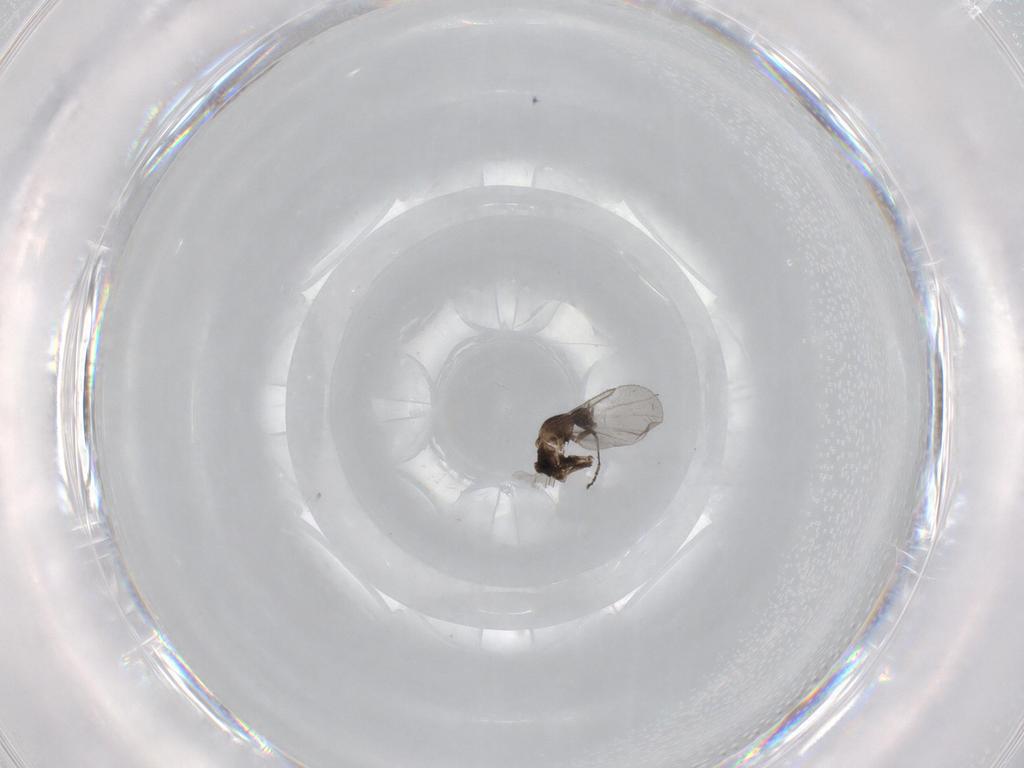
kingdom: Animalia
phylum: Arthropoda
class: Insecta
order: Diptera
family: Cecidomyiidae
